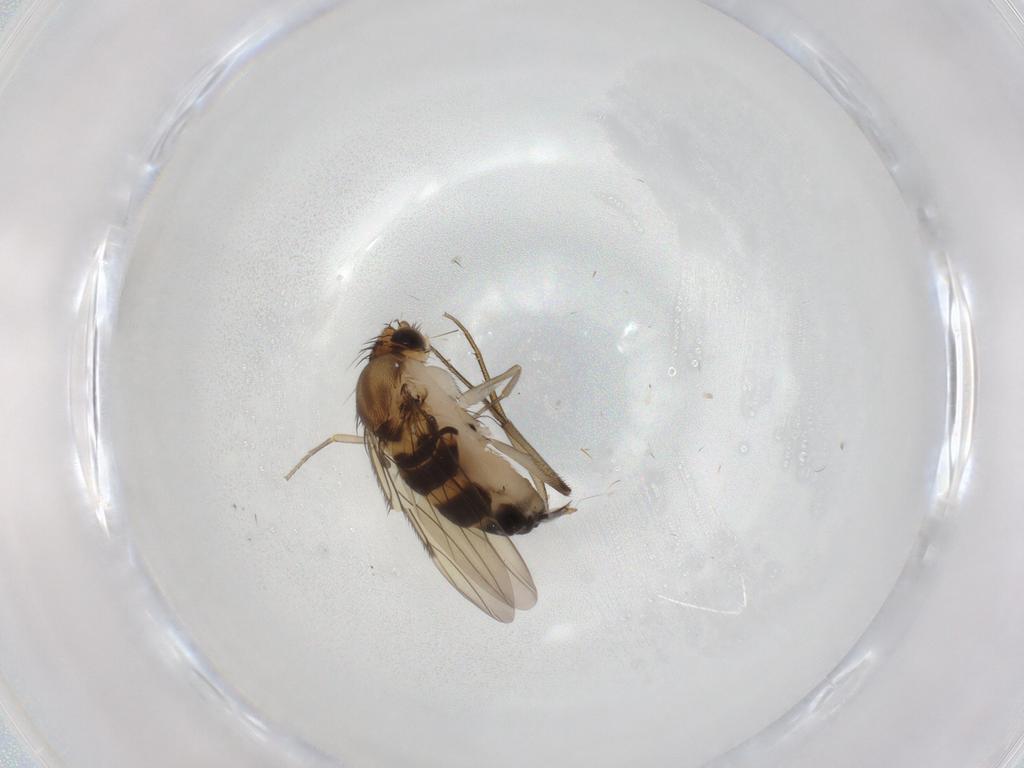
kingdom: Animalia
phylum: Arthropoda
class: Insecta
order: Diptera
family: Phoridae
